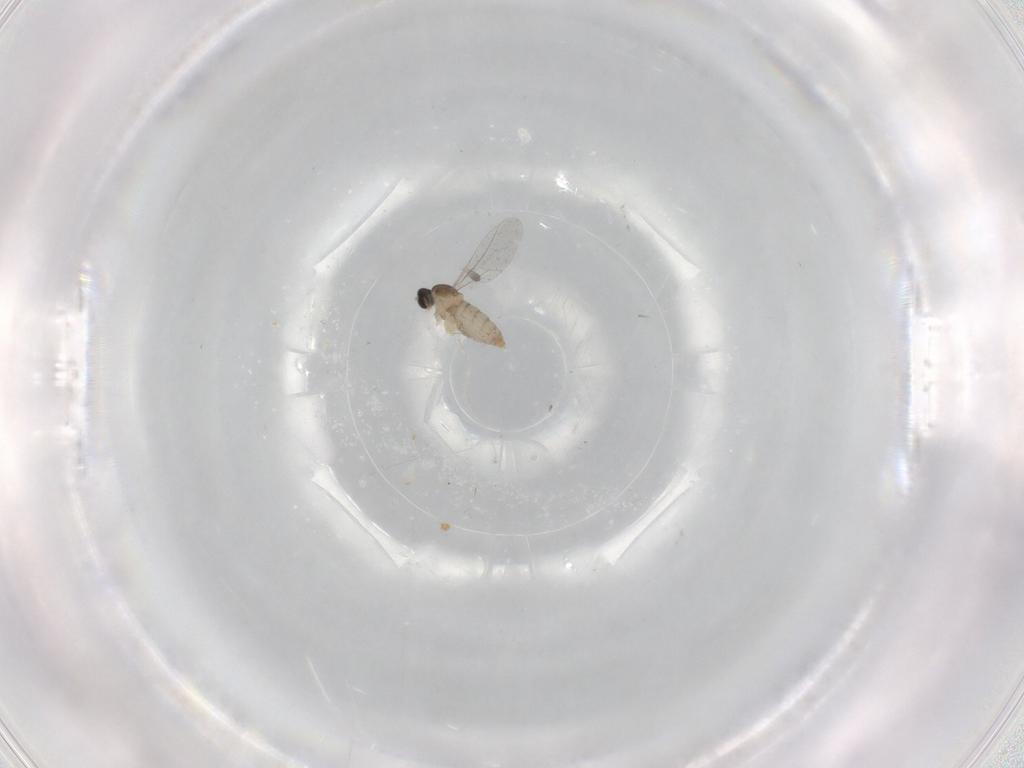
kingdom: Animalia
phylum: Arthropoda
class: Insecta
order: Diptera
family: Cecidomyiidae
